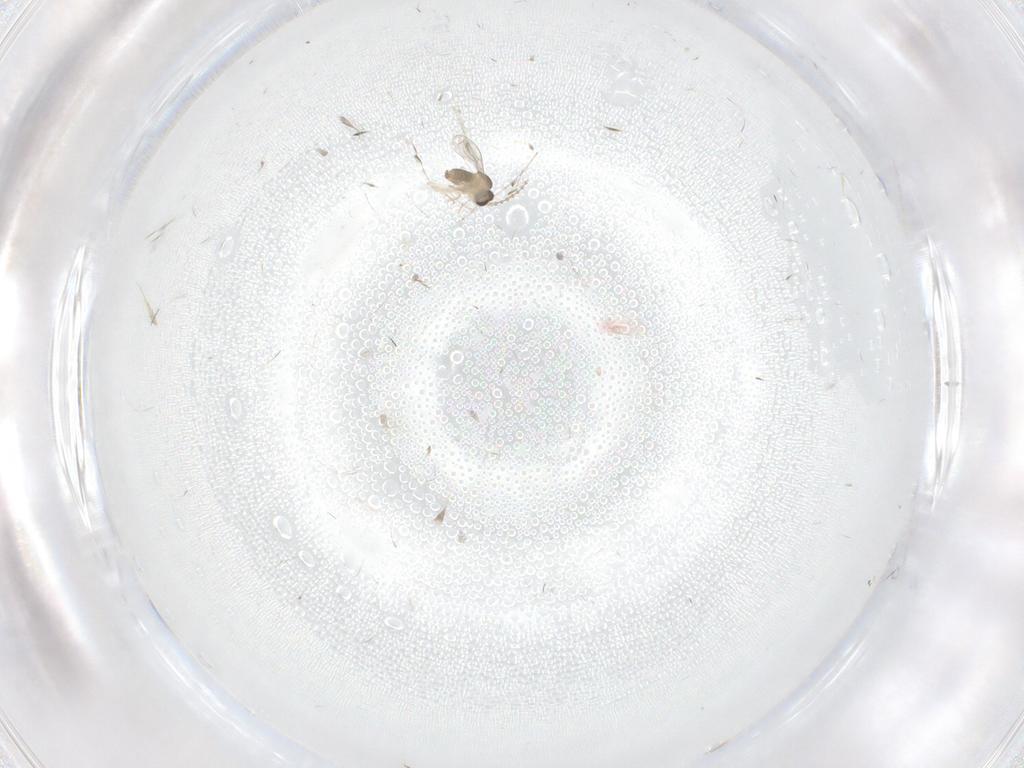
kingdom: Animalia
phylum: Arthropoda
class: Insecta
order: Diptera
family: Cecidomyiidae
